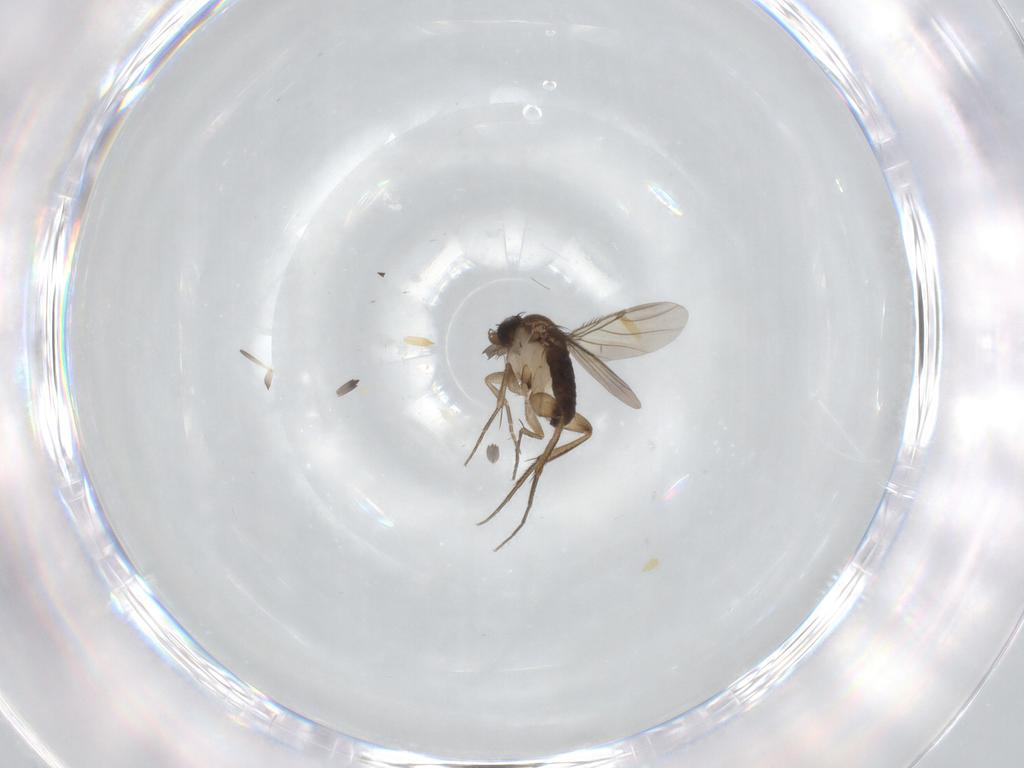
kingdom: Animalia
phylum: Arthropoda
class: Insecta
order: Diptera
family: Phoridae
